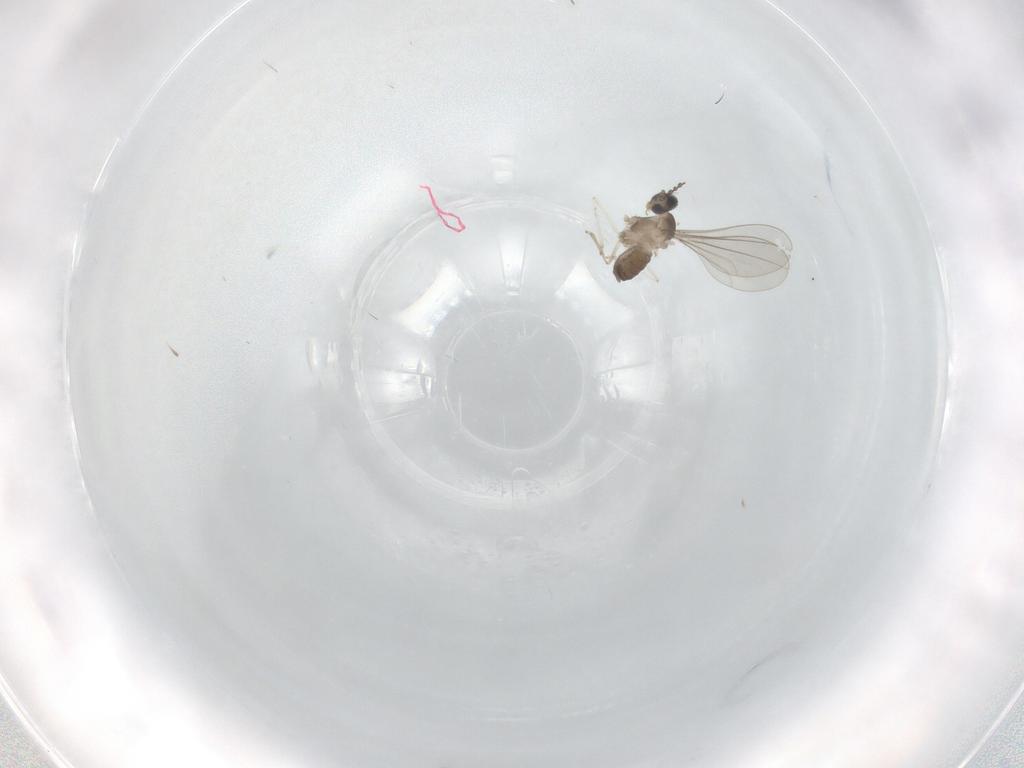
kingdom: Animalia
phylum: Arthropoda
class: Insecta
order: Diptera
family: Cecidomyiidae
